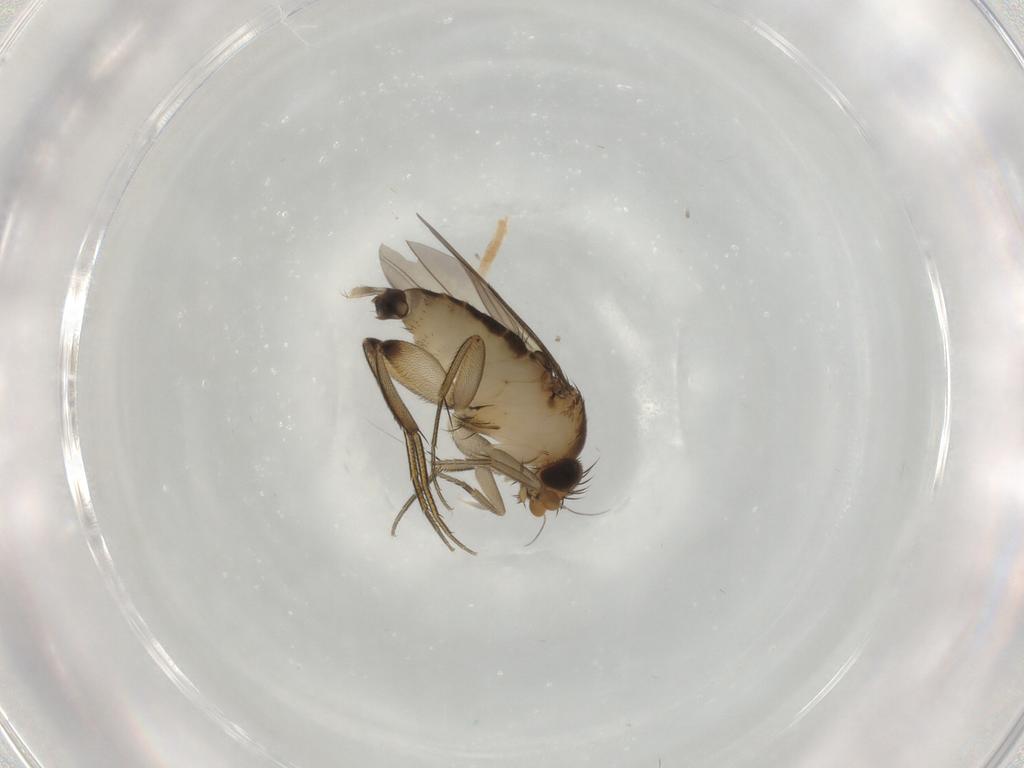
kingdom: Animalia
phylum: Arthropoda
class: Insecta
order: Diptera
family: Phoridae
